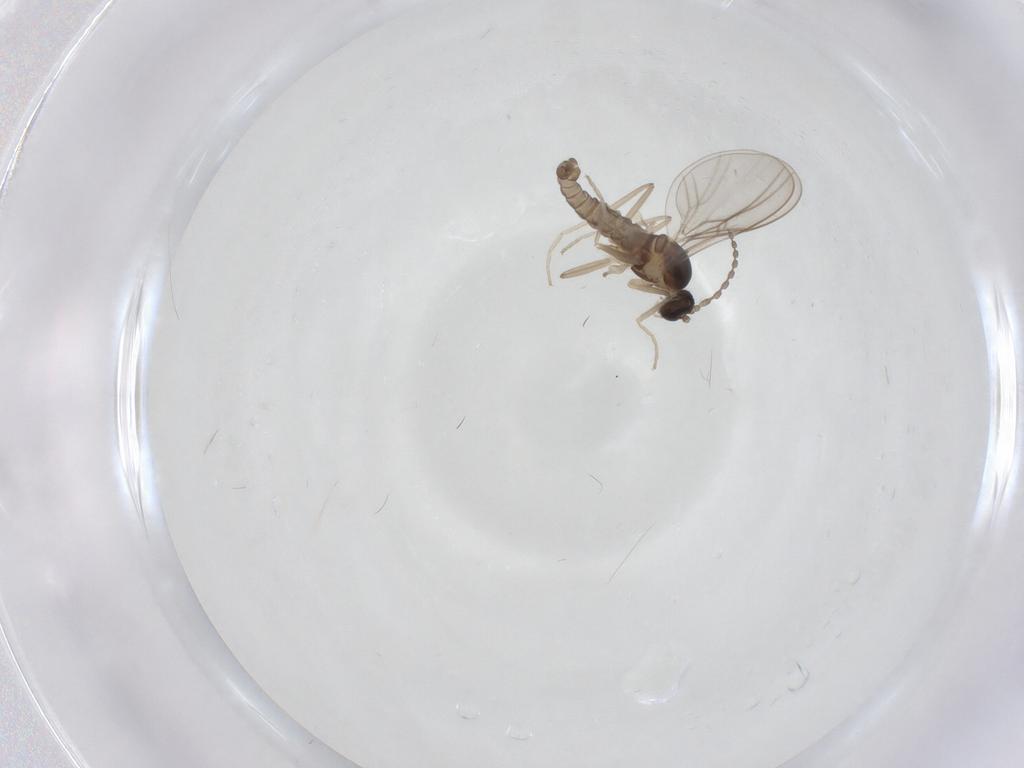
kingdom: Animalia
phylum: Arthropoda
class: Insecta
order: Diptera
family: Cecidomyiidae
